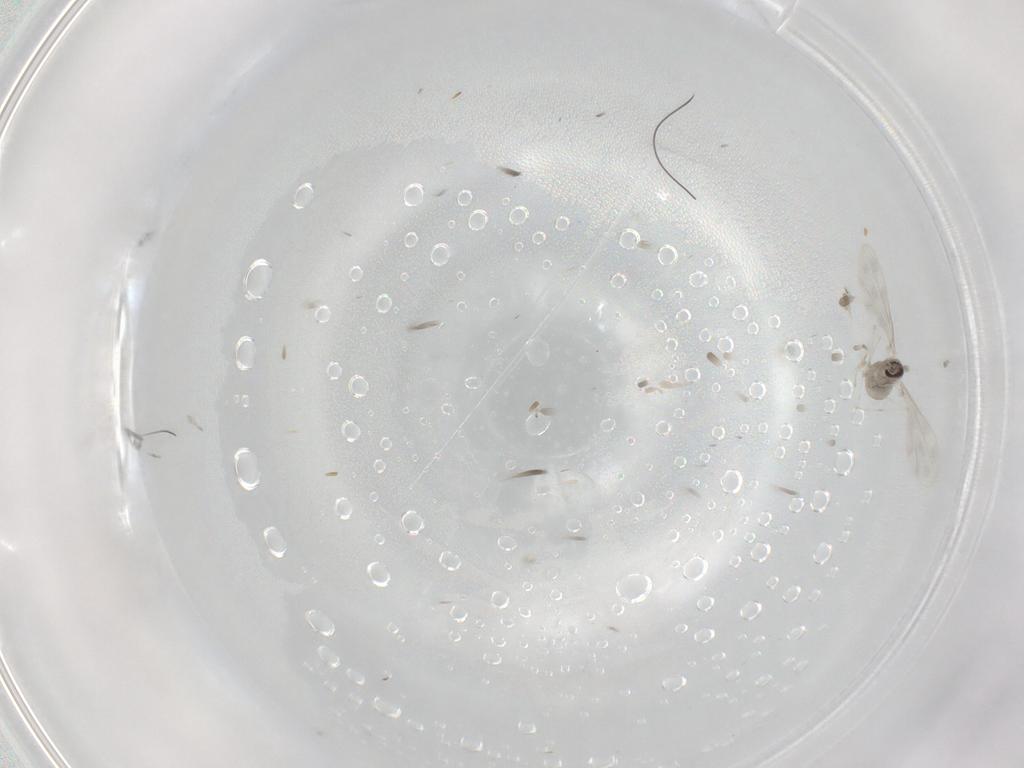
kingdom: Animalia
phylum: Arthropoda
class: Insecta
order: Diptera
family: Cecidomyiidae
